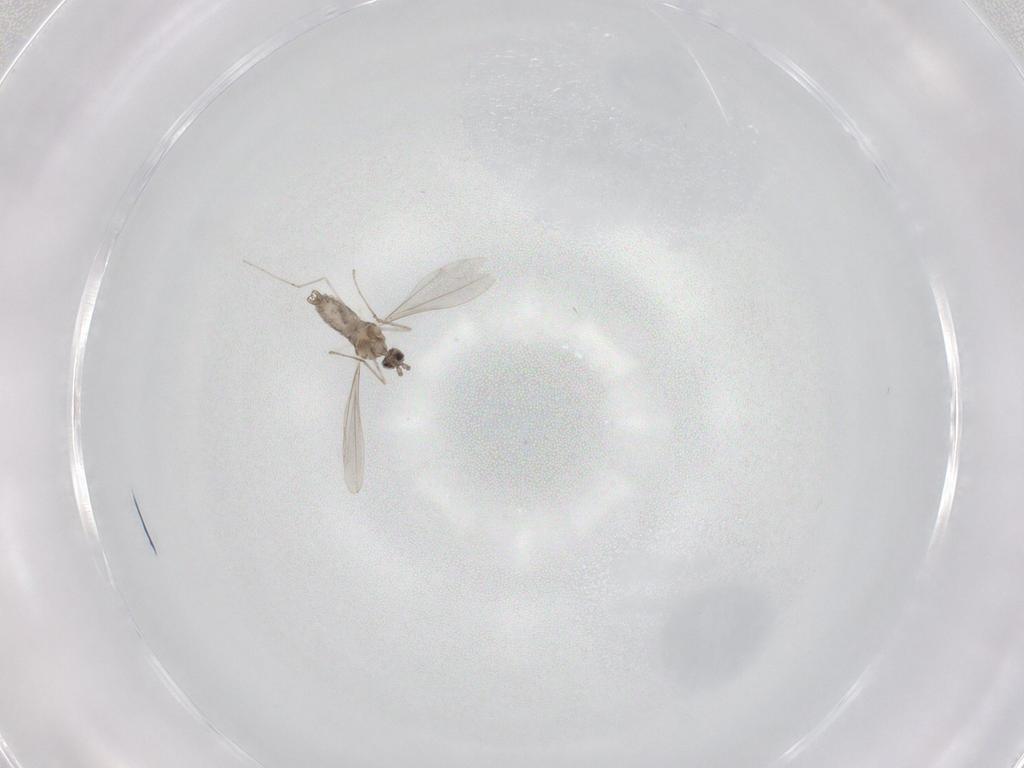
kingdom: Animalia
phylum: Arthropoda
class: Insecta
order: Diptera
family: Cecidomyiidae
